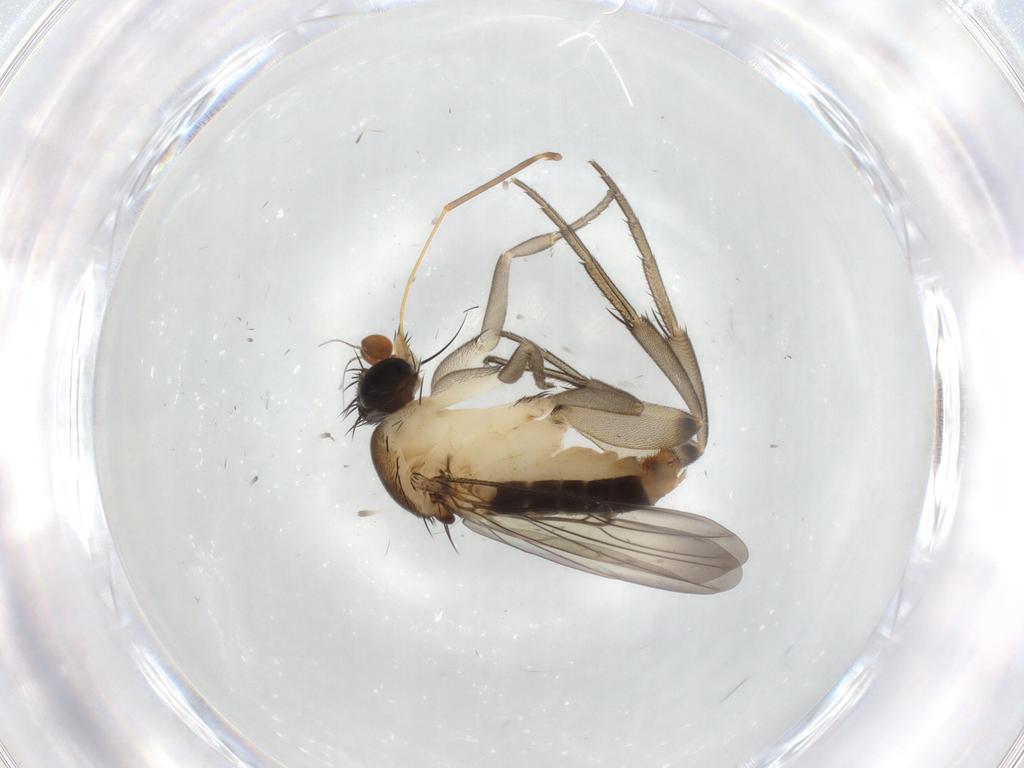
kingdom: Animalia
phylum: Arthropoda
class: Insecta
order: Diptera
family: Phoridae
